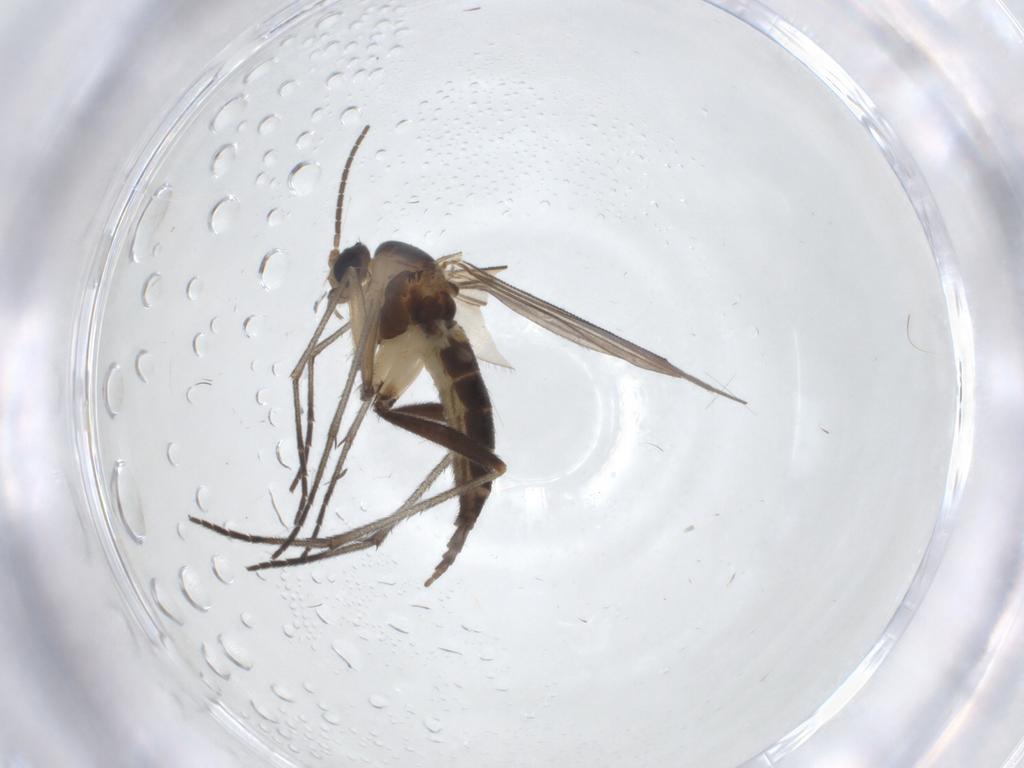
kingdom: Animalia
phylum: Arthropoda
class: Insecta
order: Diptera
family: Sciaridae
